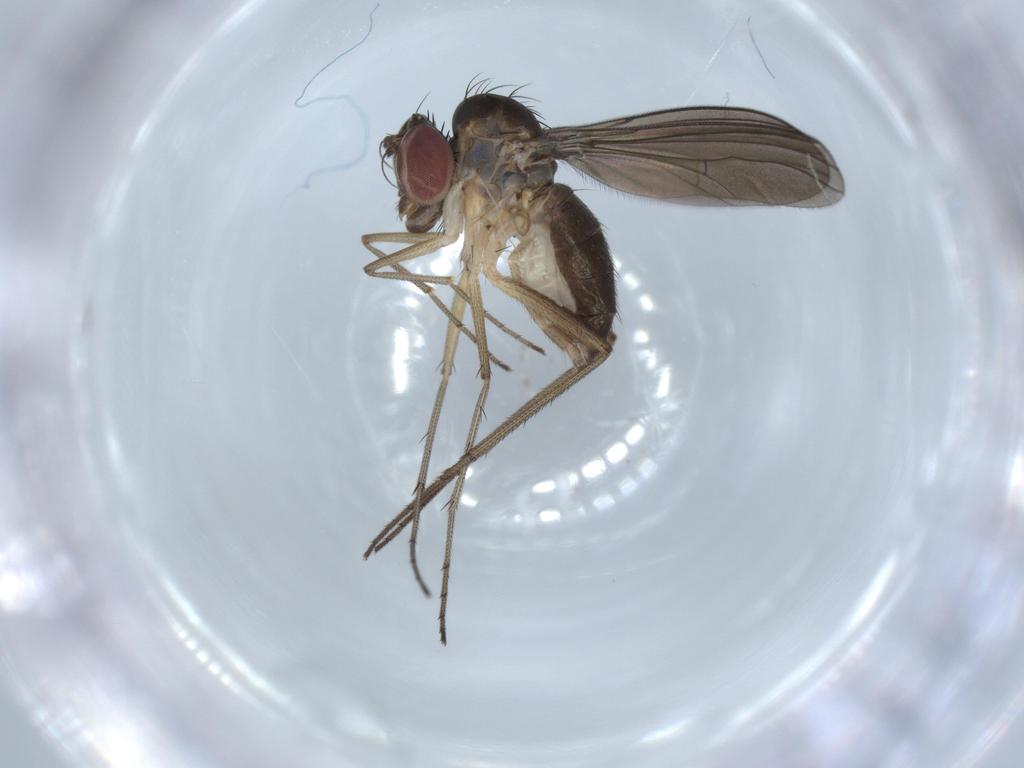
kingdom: Animalia
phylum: Arthropoda
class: Insecta
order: Diptera
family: Dolichopodidae
